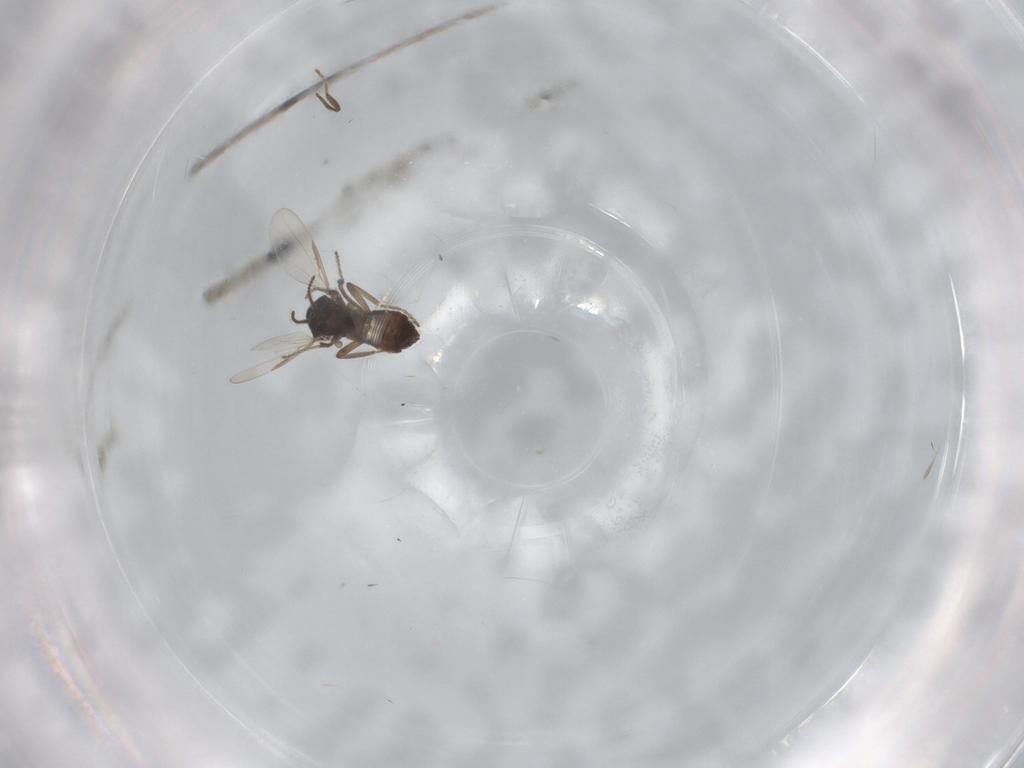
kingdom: Animalia
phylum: Arthropoda
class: Insecta
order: Diptera
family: Ceratopogonidae
